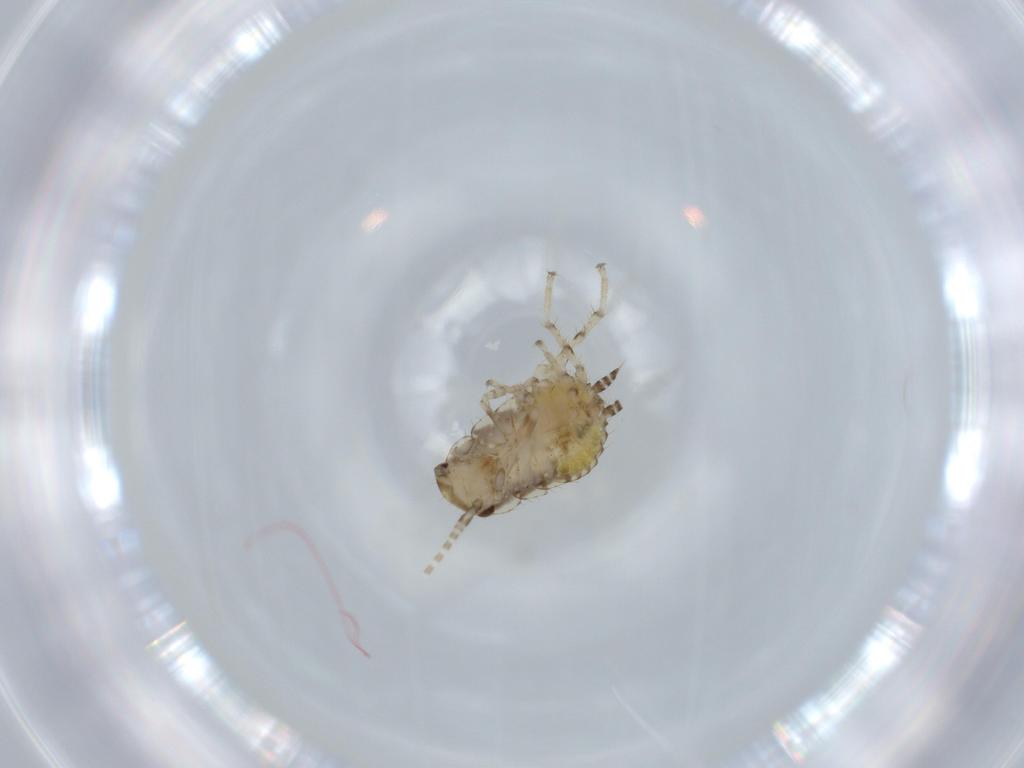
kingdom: Animalia
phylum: Arthropoda
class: Insecta
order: Blattodea
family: Ectobiidae
